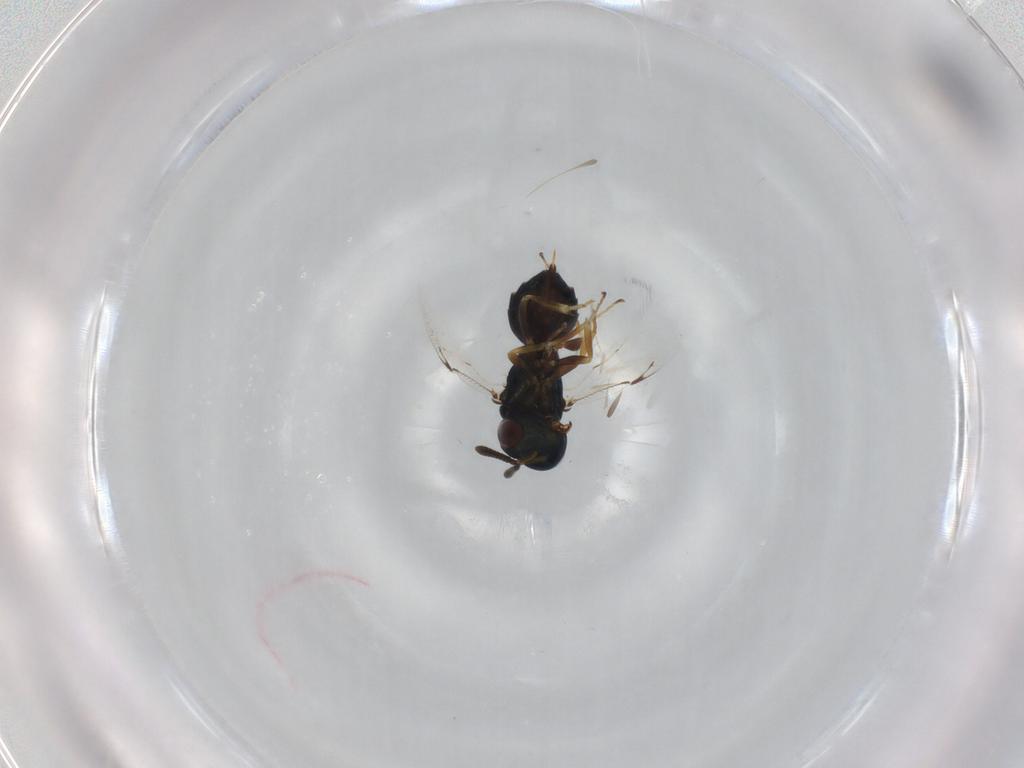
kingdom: Animalia
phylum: Arthropoda
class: Insecta
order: Hymenoptera
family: Pteromalidae
